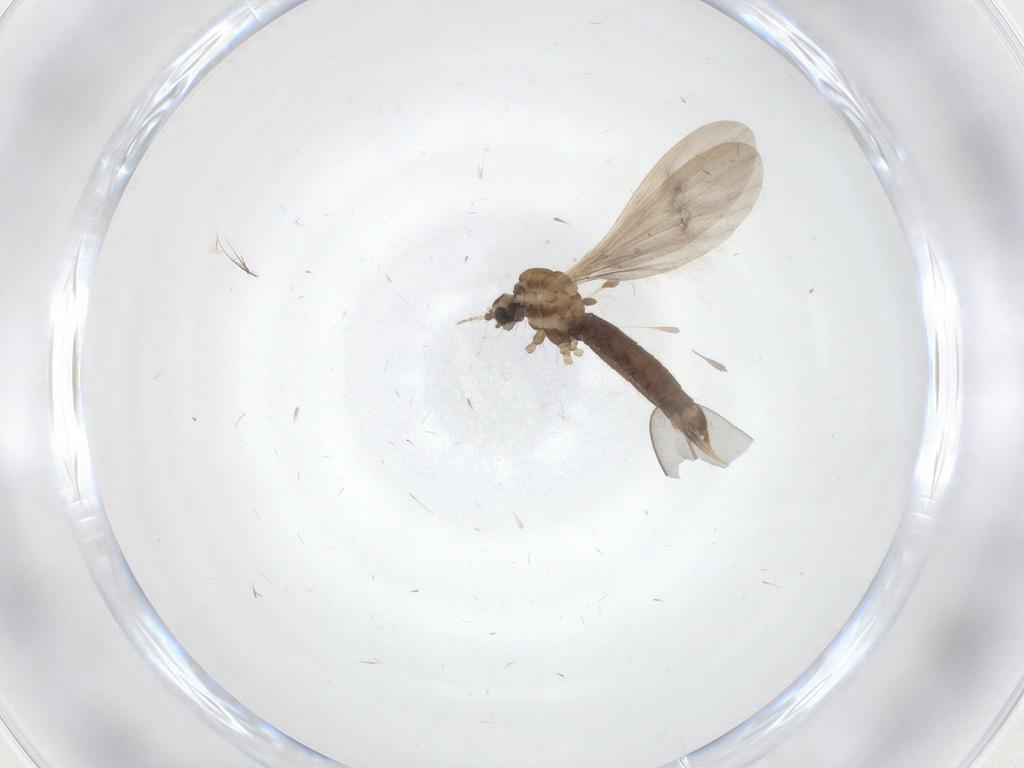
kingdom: Animalia
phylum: Arthropoda
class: Insecta
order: Diptera
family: Limoniidae
